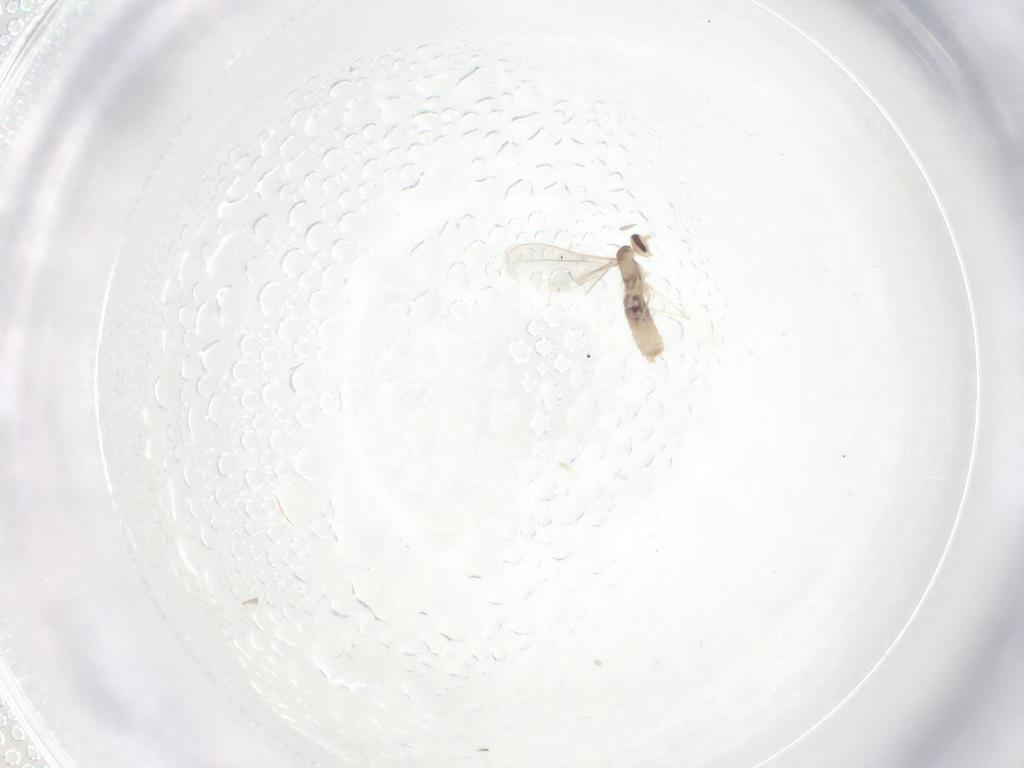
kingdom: Animalia
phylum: Arthropoda
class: Insecta
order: Diptera
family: Cecidomyiidae
